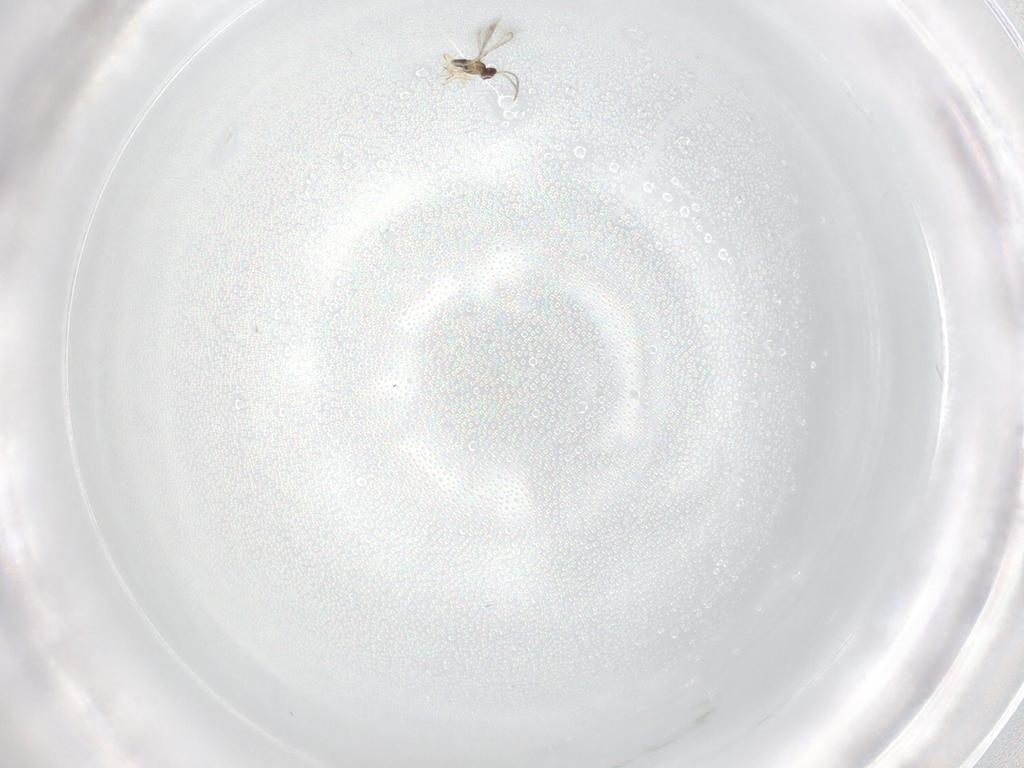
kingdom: Animalia
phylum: Arthropoda
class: Insecta
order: Hymenoptera
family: Mymaridae
